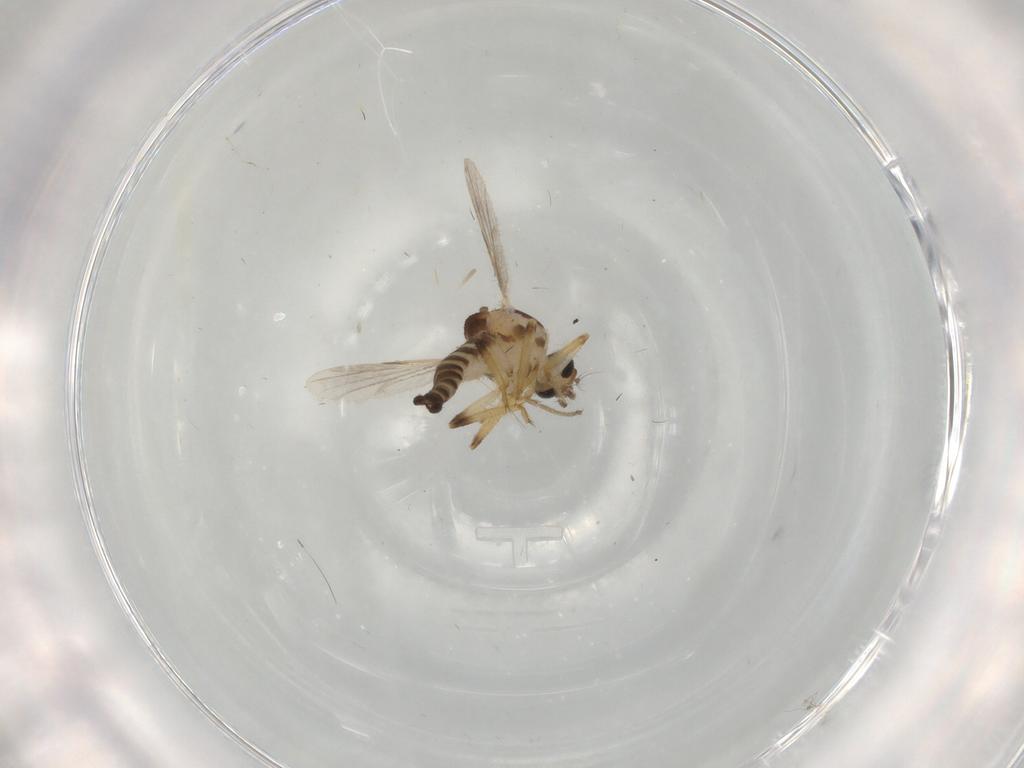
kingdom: Animalia
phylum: Arthropoda
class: Insecta
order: Diptera
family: Ceratopogonidae
